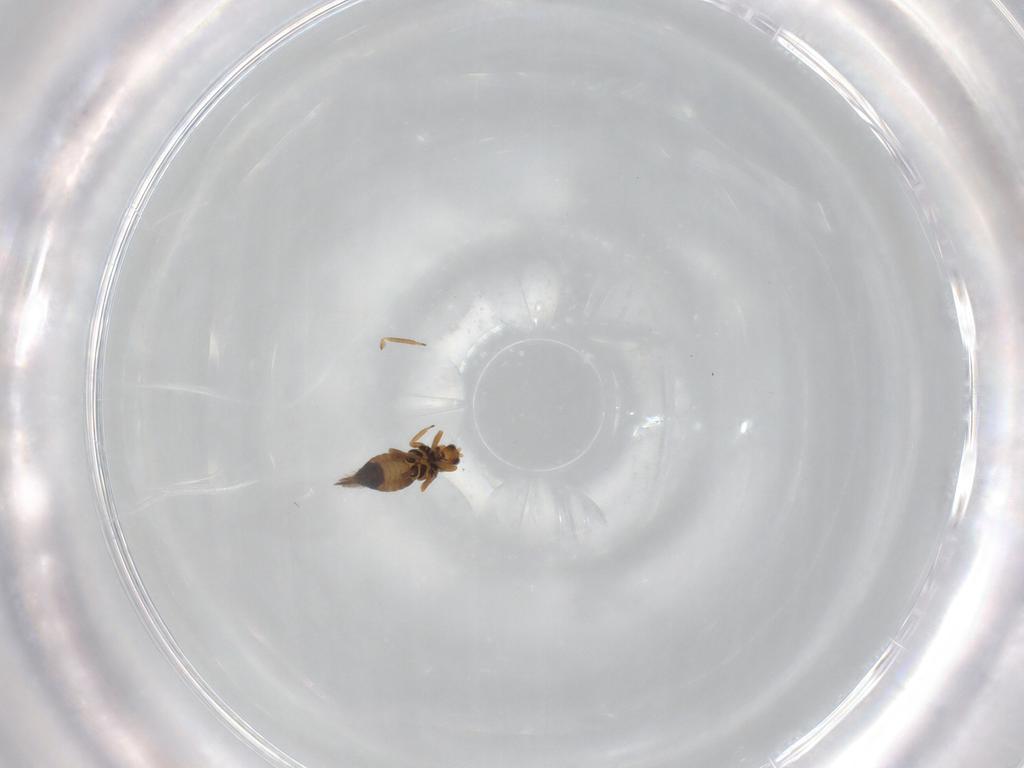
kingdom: Animalia
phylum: Arthropoda
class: Insecta
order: Thysanoptera
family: Thripidae
